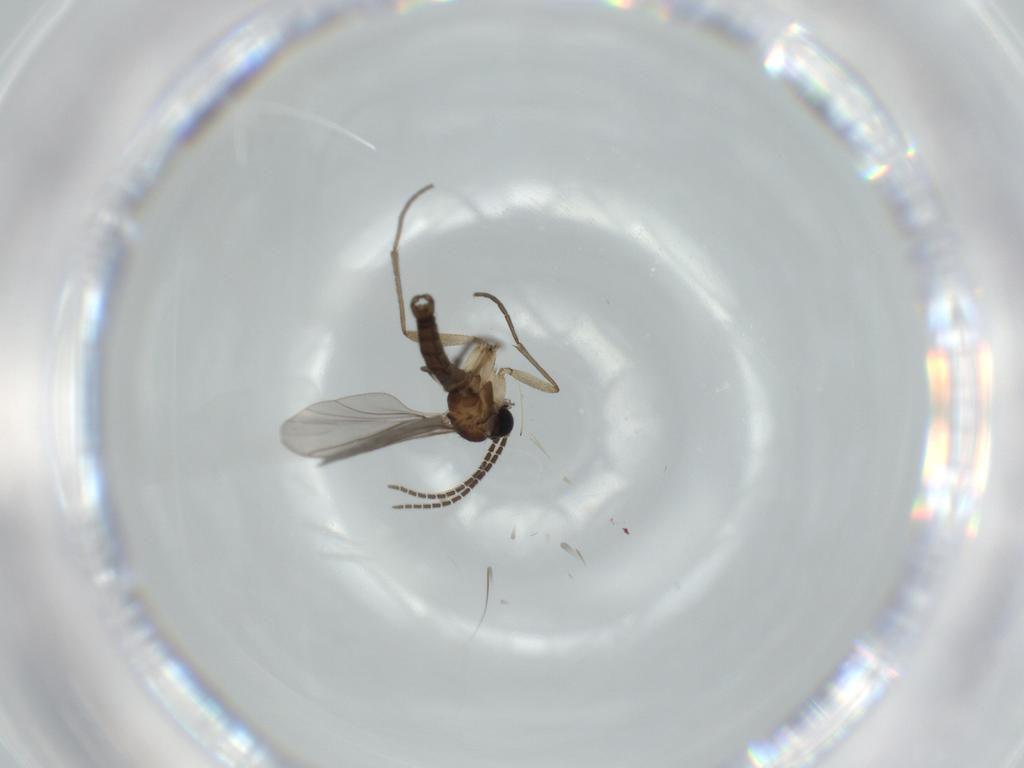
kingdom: Animalia
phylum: Arthropoda
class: Insecta
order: Diptera
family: Sciaridae
